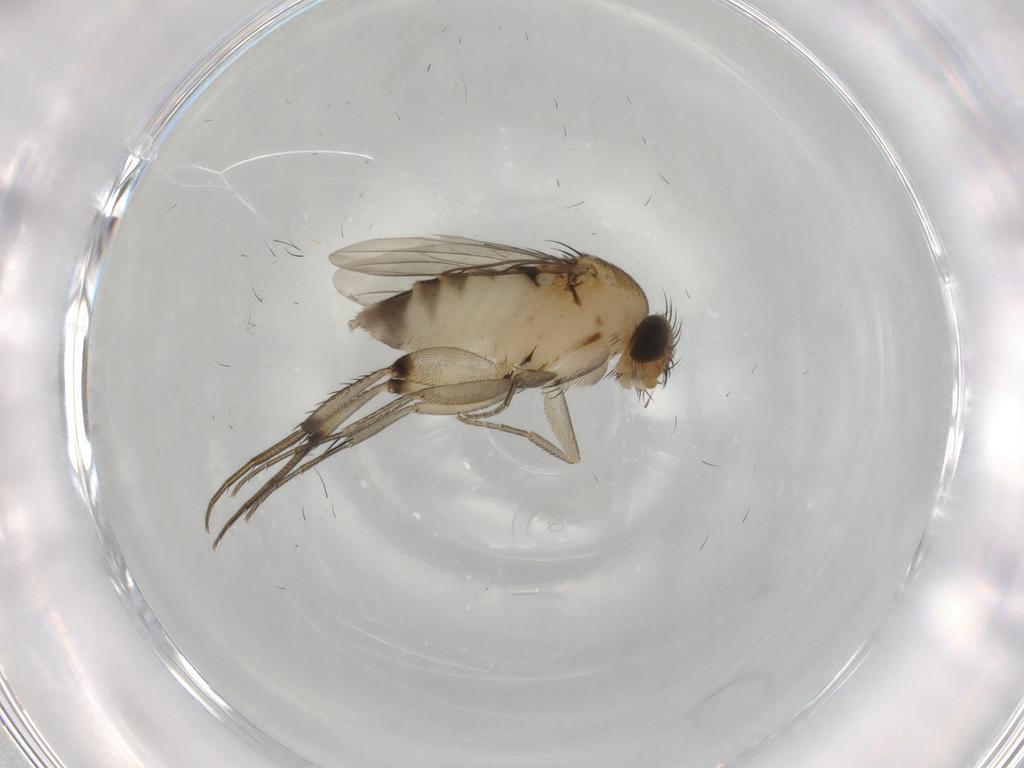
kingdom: Animalia
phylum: Arthropoda
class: Insecta
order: Diptera
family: Phoridae
